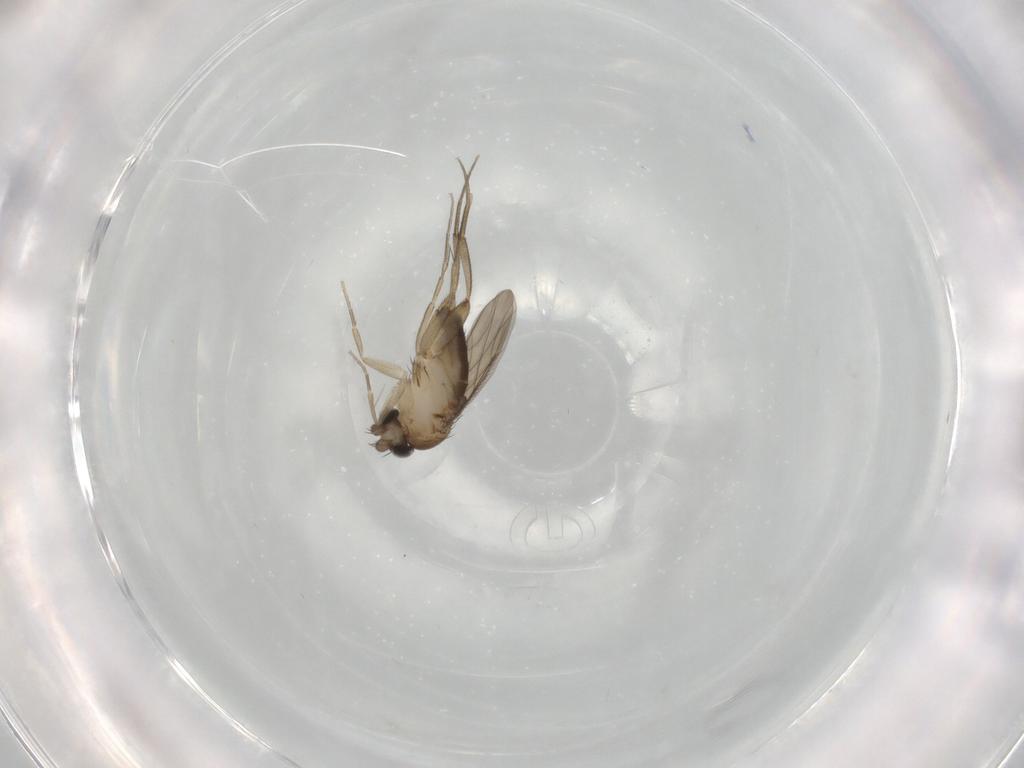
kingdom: Animalia
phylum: Arthropoda
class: Insecta
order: Diptera
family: Phoridae
